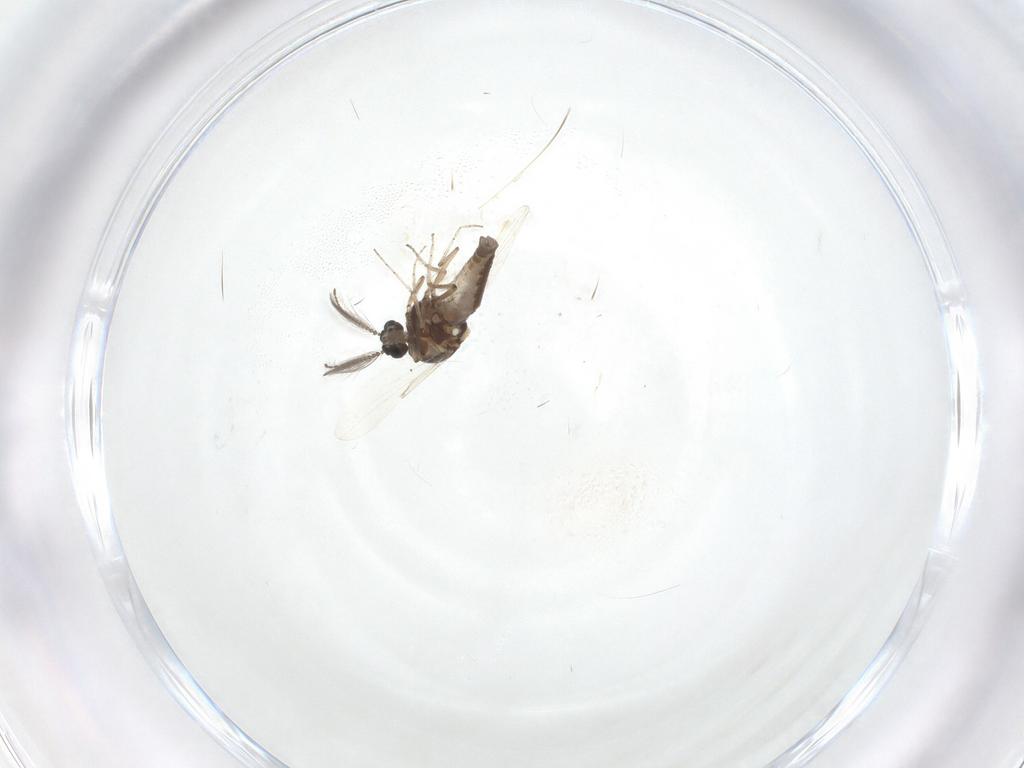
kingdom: Animalia
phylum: Arthropoda
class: Insecta
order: Diptera
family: Ceratopogonidae
